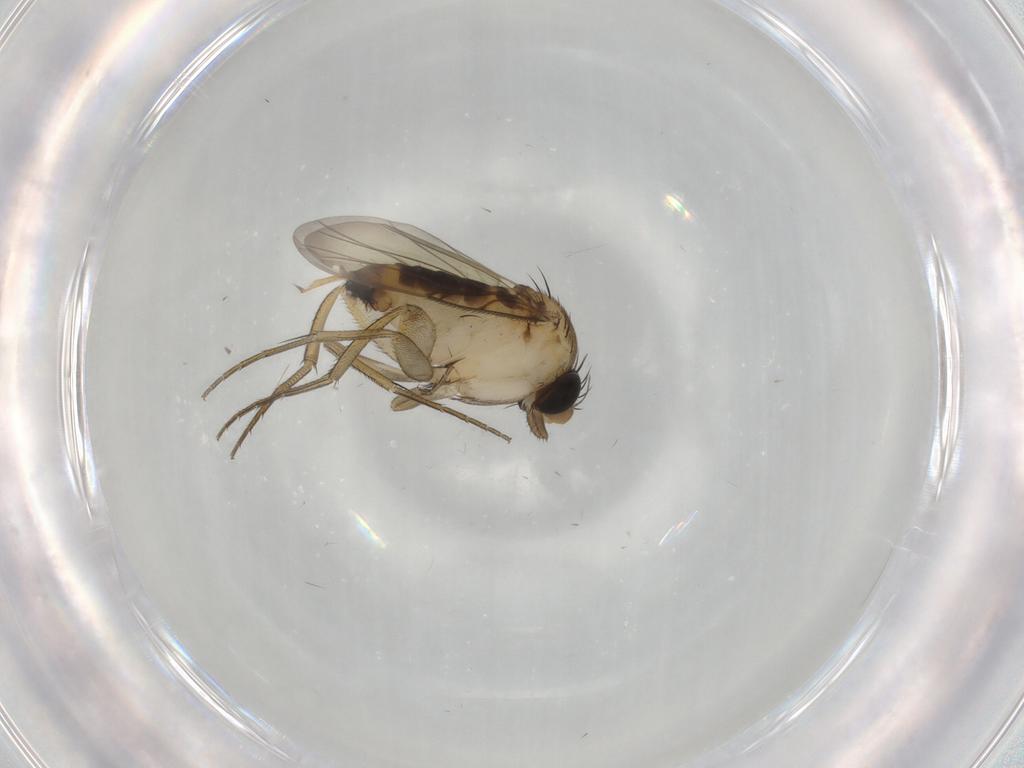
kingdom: Animalia
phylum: Arthropoda
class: Insecta
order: Diptera
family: Phoridae
